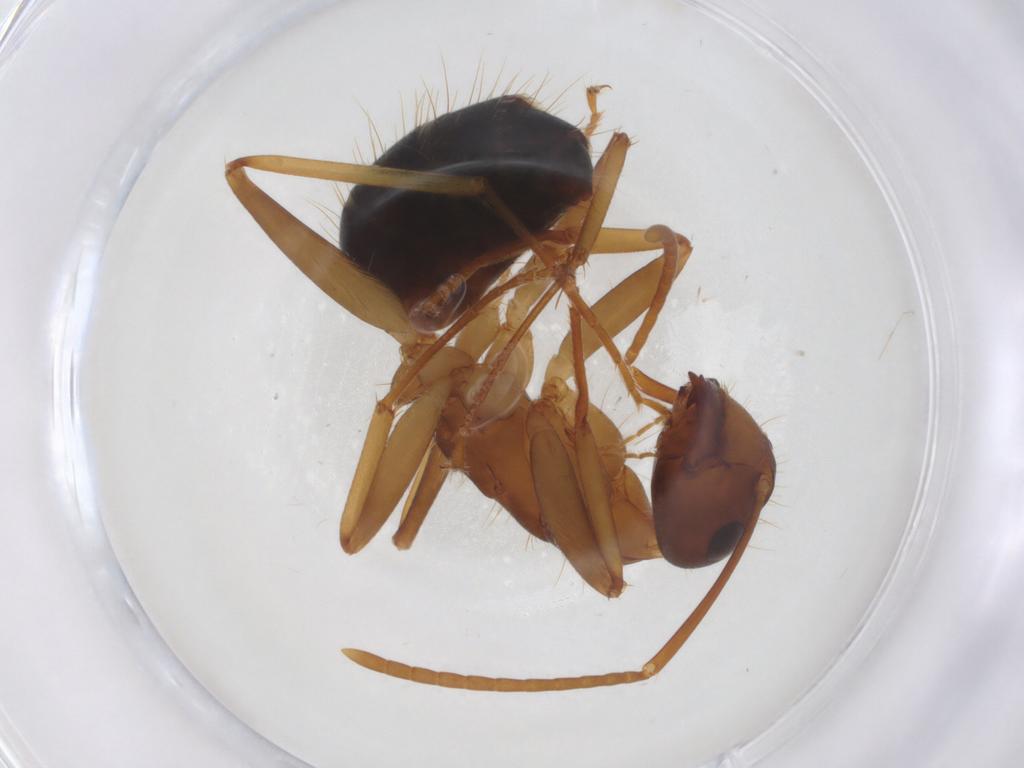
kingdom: Animalia
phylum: Arthropoda
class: Insecta
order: Hymenoptera
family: Formicidae
